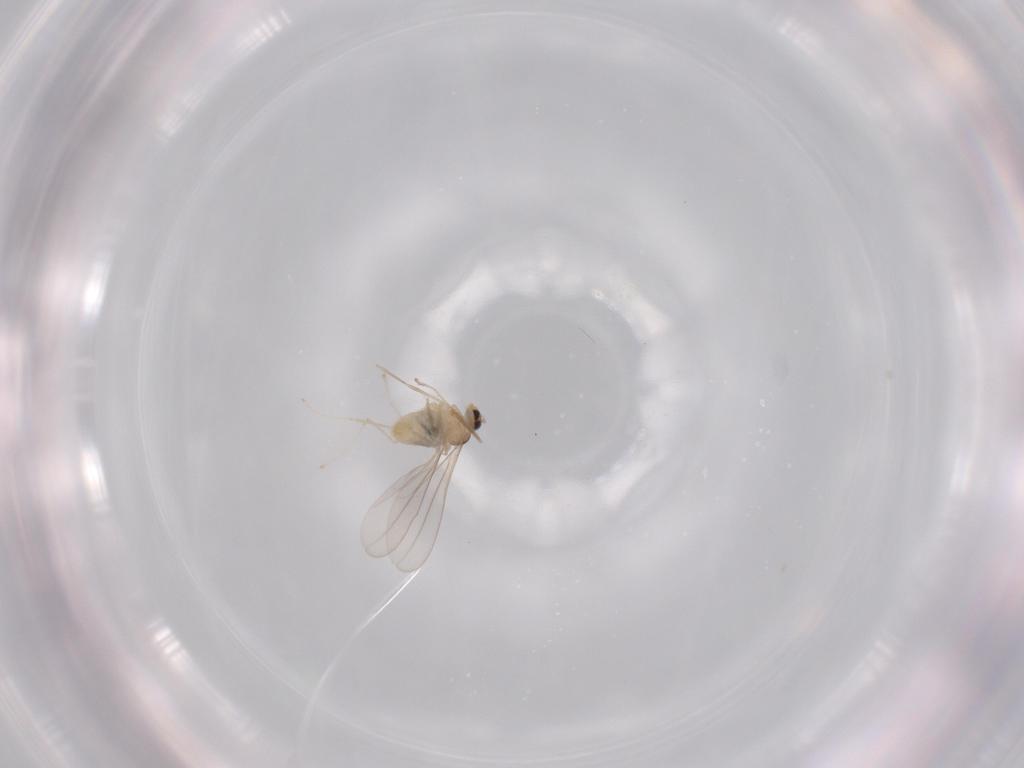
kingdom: Animalia
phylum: Arthropoda
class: Insecta
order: Diptera
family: Cecidomyiidae
